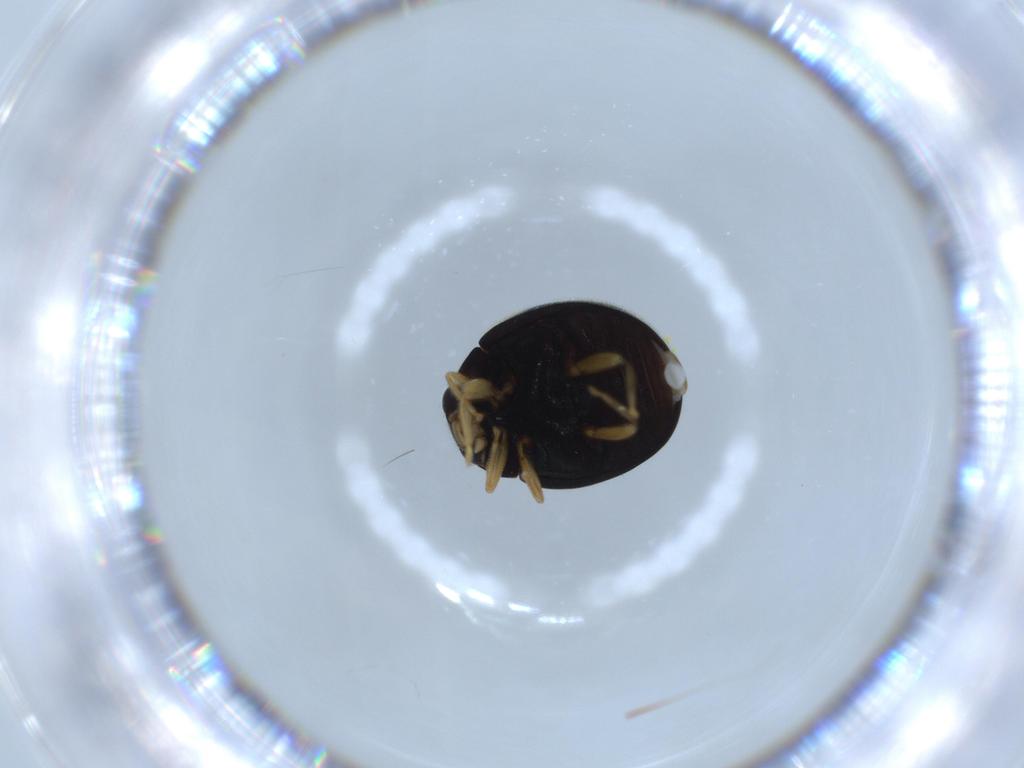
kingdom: Animalia
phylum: Arthropoda
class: Insecta
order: Coleoptera
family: Coccinellidae
